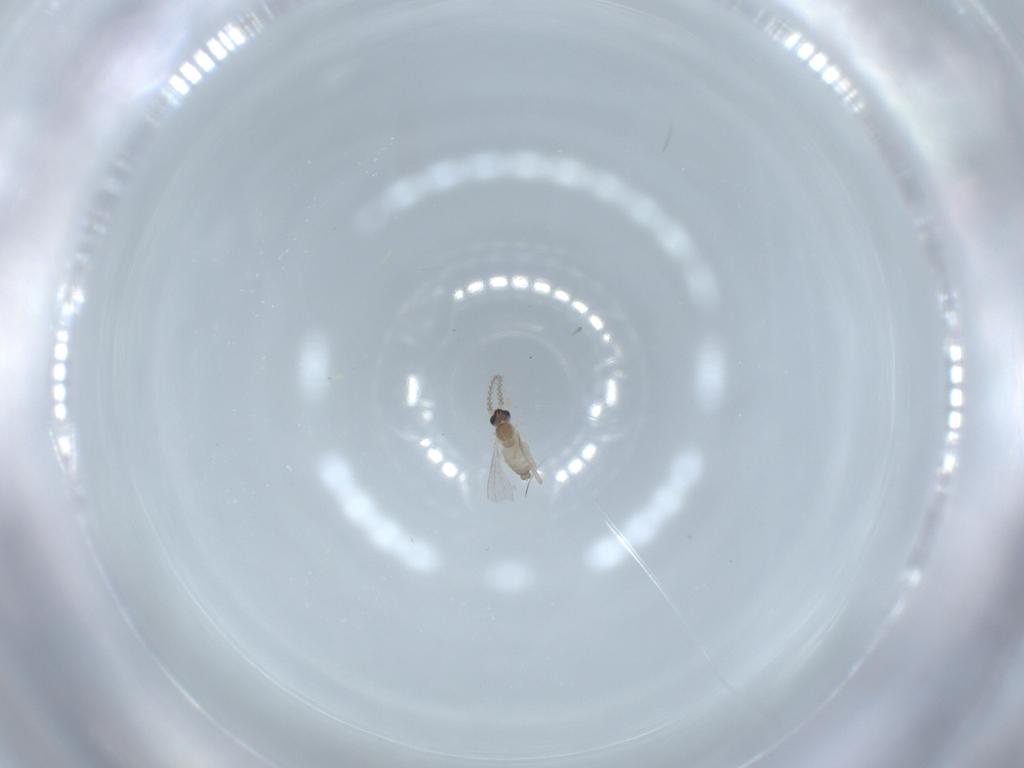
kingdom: Animalia
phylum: Arthropoda
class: Insecta
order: Diptera
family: Cecidomyiidae
